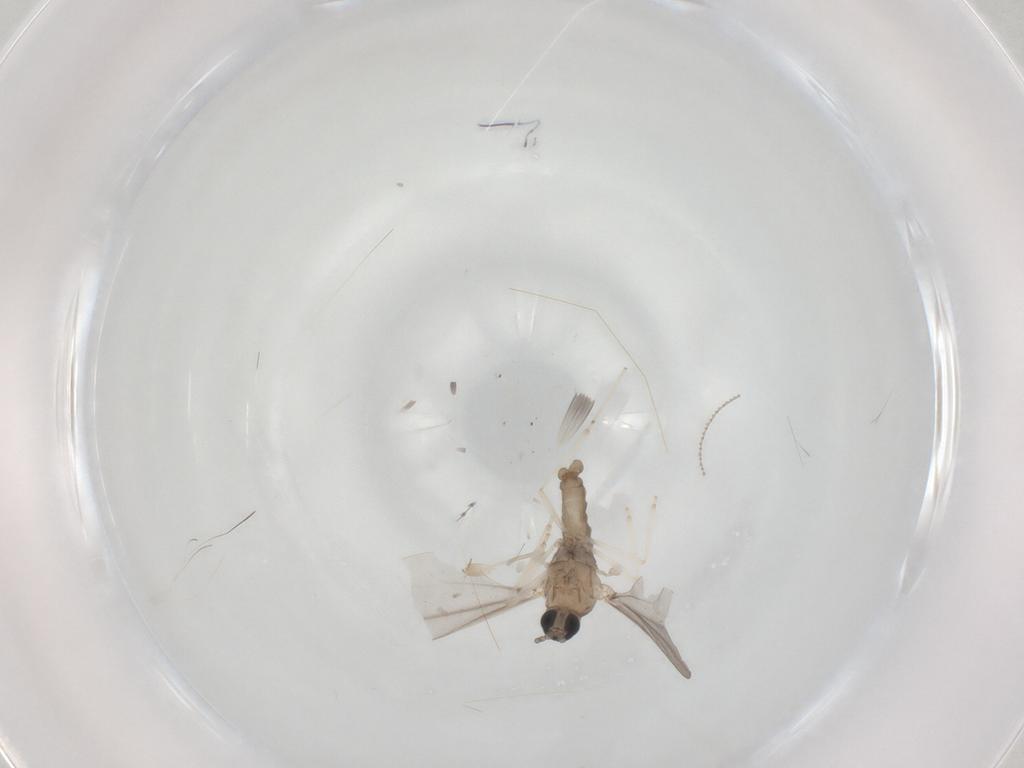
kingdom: Animalia
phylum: Arthropoda
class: Insecta
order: Diptera
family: Cecidomyiidae
